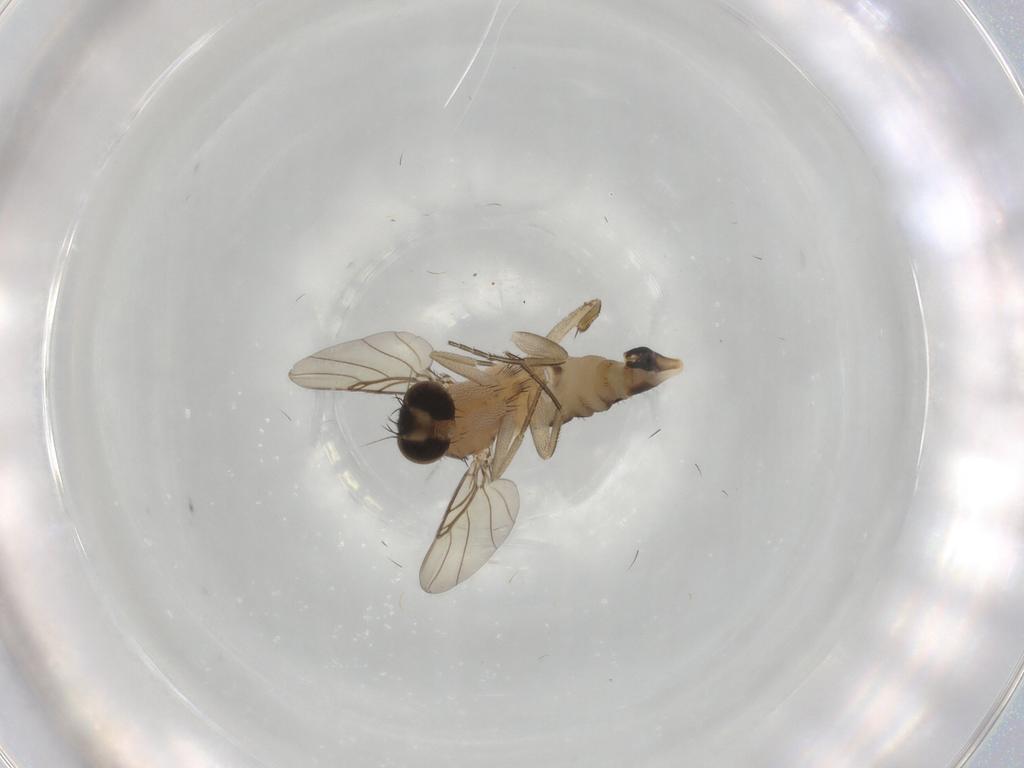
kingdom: Animalia
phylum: Arthropoda
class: Insecta
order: Diptera
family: Phoridae
